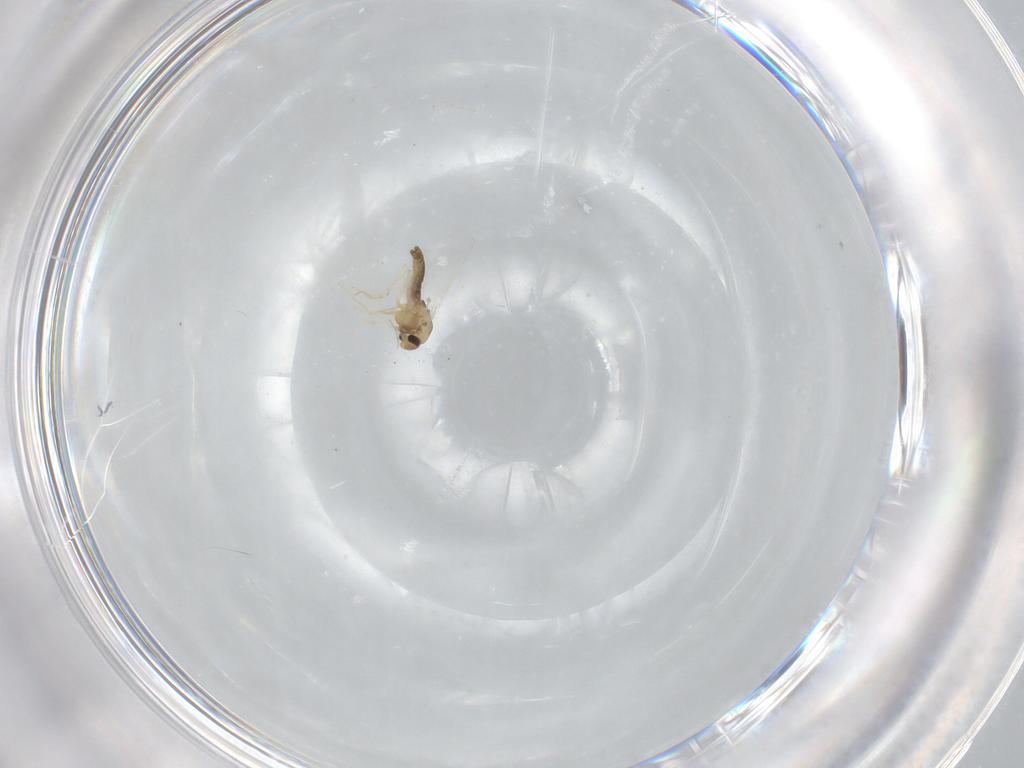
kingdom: Animalia
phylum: Arthropoda
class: Insecta
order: Diptera
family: Chironomidae
